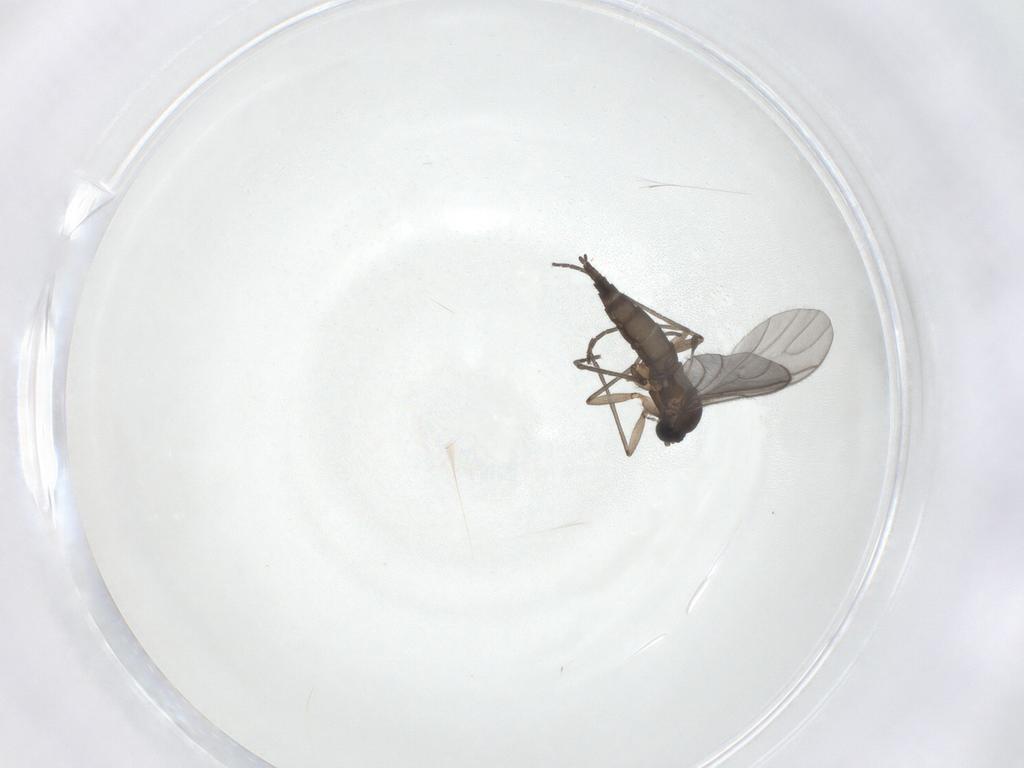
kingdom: Animalia
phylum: Arthropoda
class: Insecta
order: Diptera
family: Sciaridae
